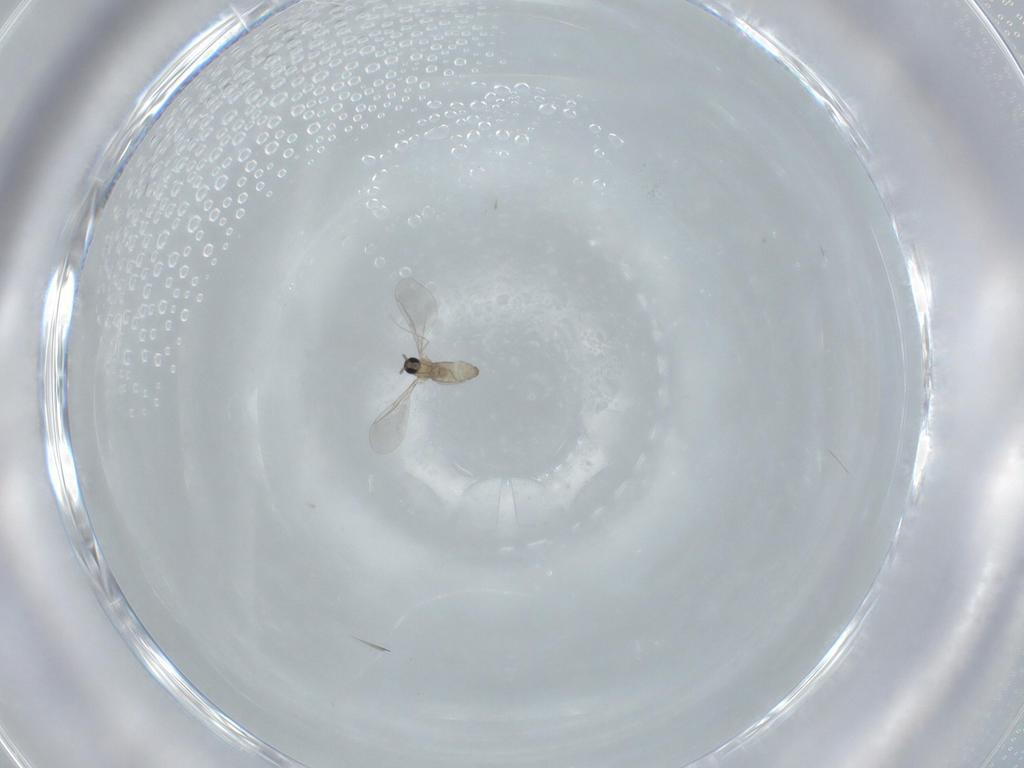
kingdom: Animalia
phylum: Arthropoda
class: Insecta
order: Diptera
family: Cecidomyiidae
